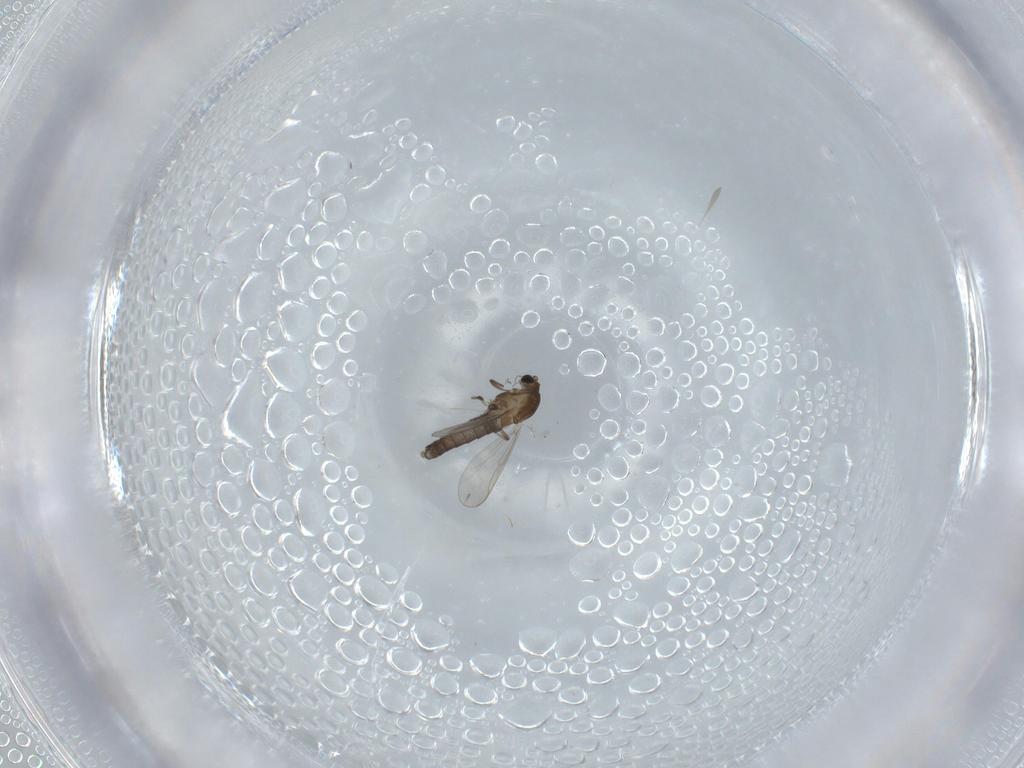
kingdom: Animalia
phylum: Arthropoda
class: Insecta
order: Diptera
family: Chironomidae
